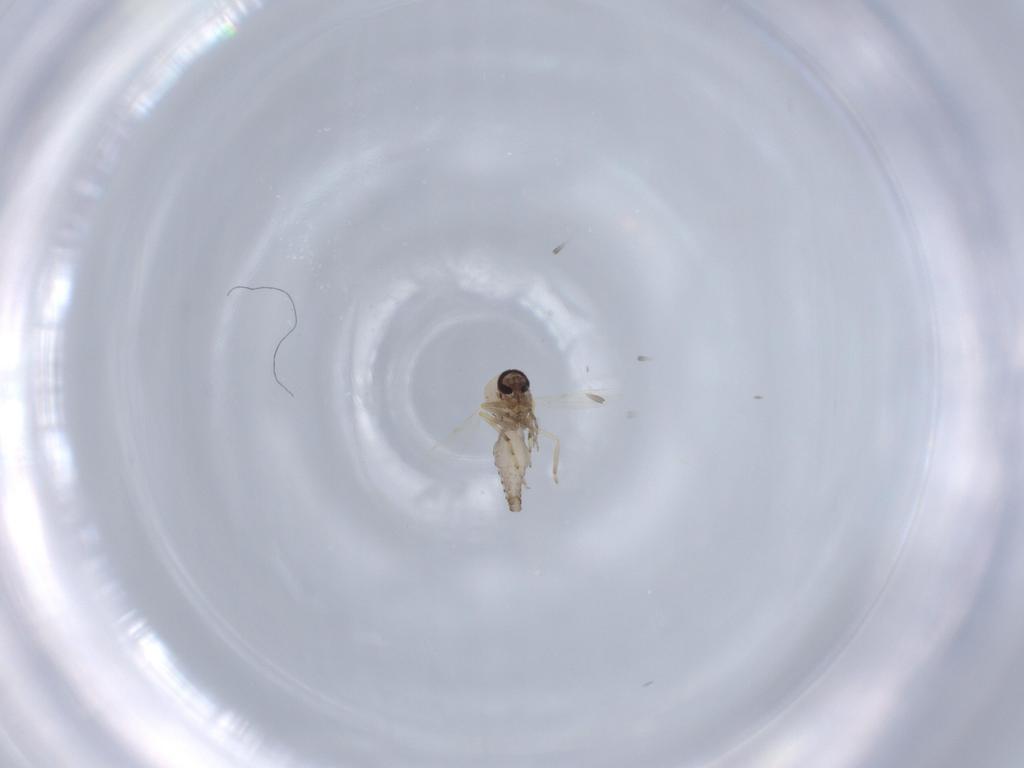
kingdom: Animalia
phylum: Arthropoda
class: Insecta
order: Diptera
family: Ceratopogonidae
